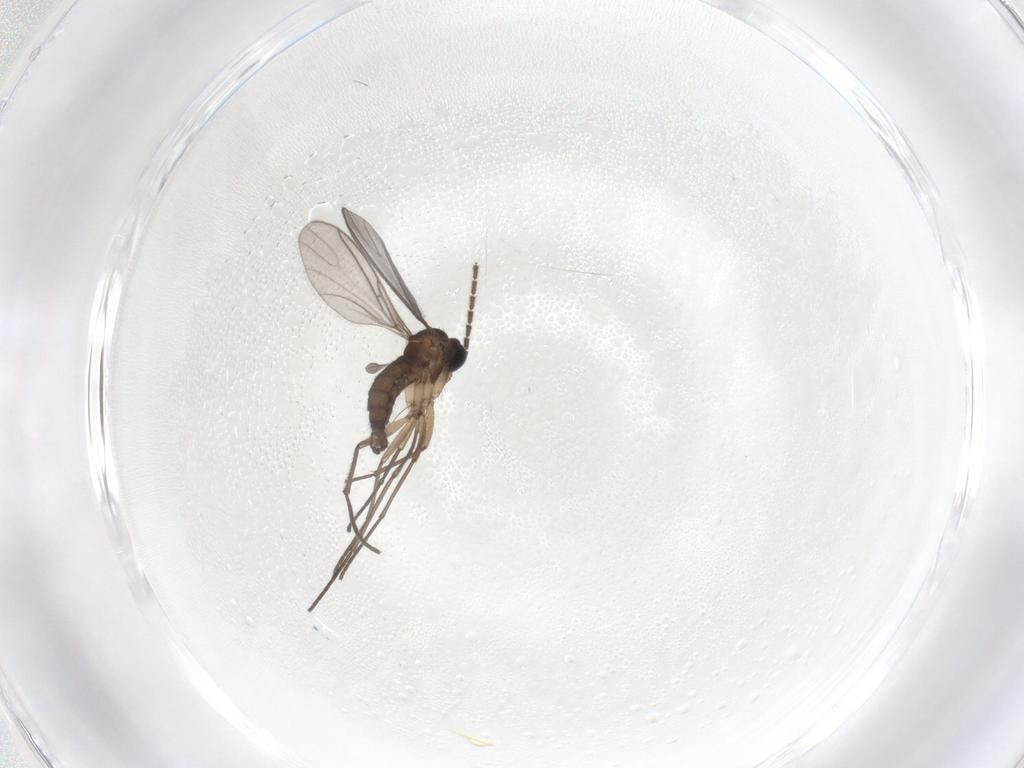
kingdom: Animalia
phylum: Arthropoda
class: Insecta
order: Diptera
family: Sciaridae
